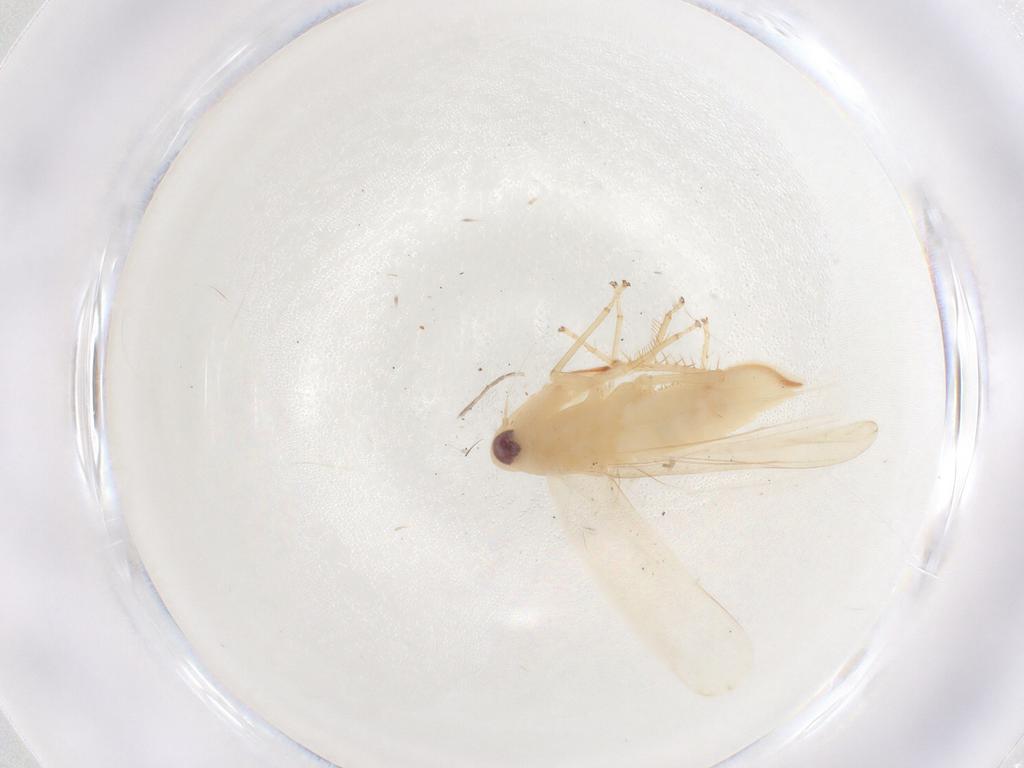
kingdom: Animalia
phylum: Arthropoda
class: Insecta
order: Hemiptera
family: Cicadellidae
